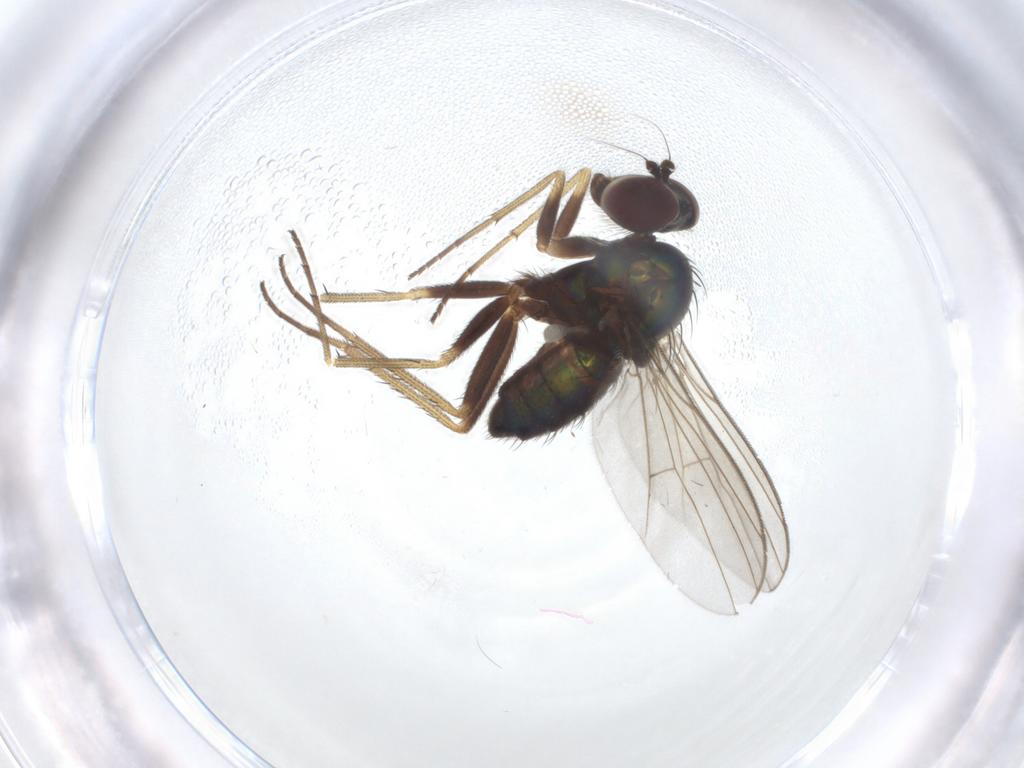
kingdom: Animalia
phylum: Arthropoda
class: Insecta
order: Diptera
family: Dolichopodidae
